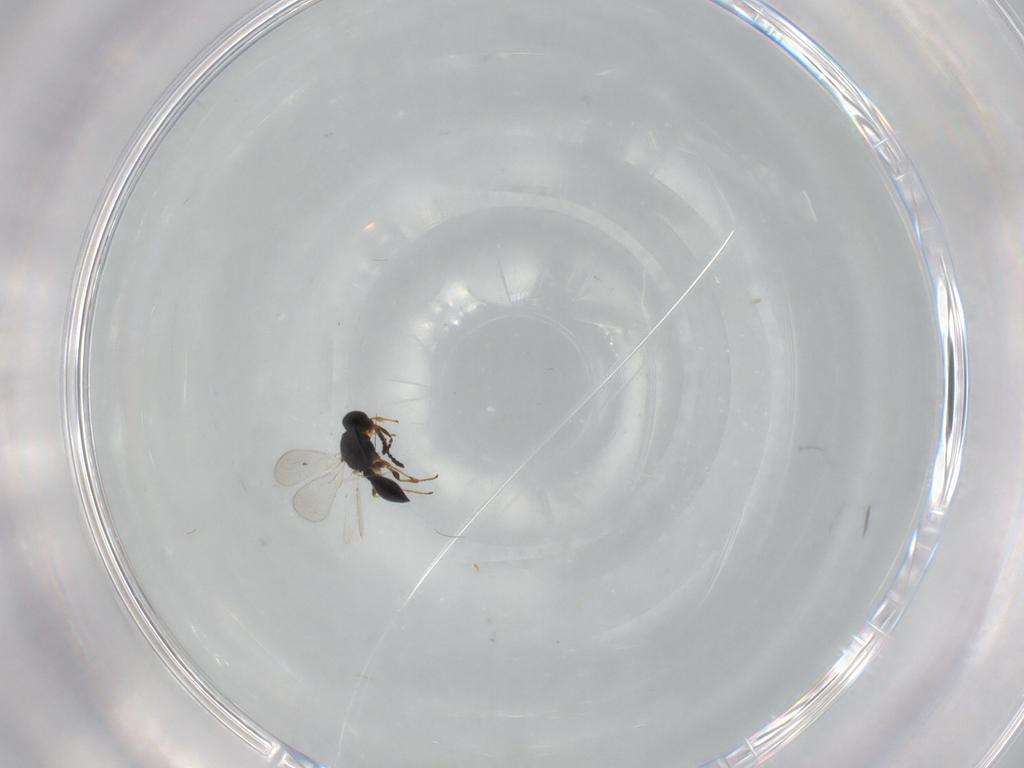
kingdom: Animalia
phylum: Arthropoda
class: Insecta
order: Hymenoptera
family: Platygastridae
